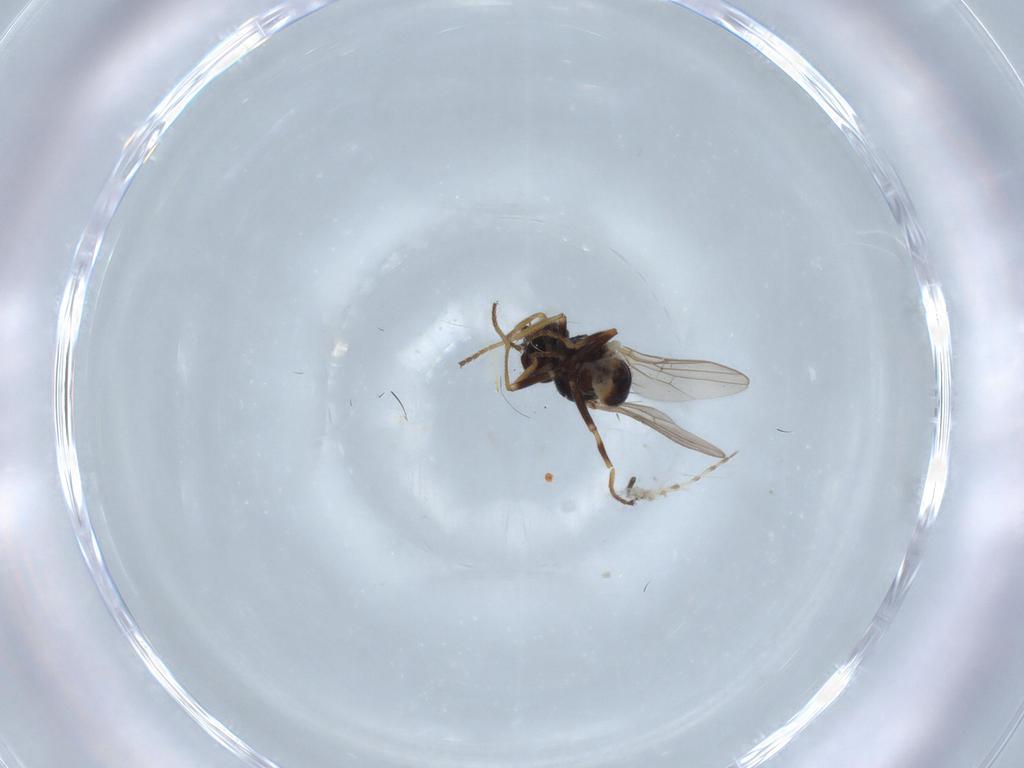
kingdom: Animalia
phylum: Arthropoda
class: Insecta
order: Diptera
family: Chloropidae
